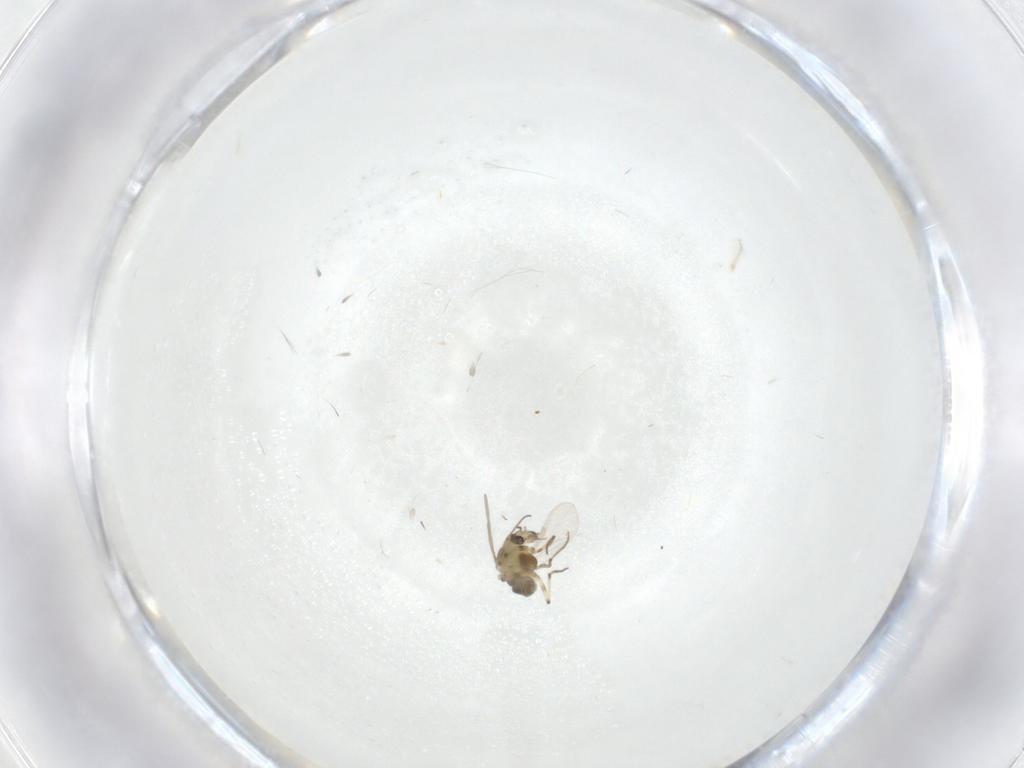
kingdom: Animalia
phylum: Arthropoda
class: Insecta
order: Diptera
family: Chironomidae
